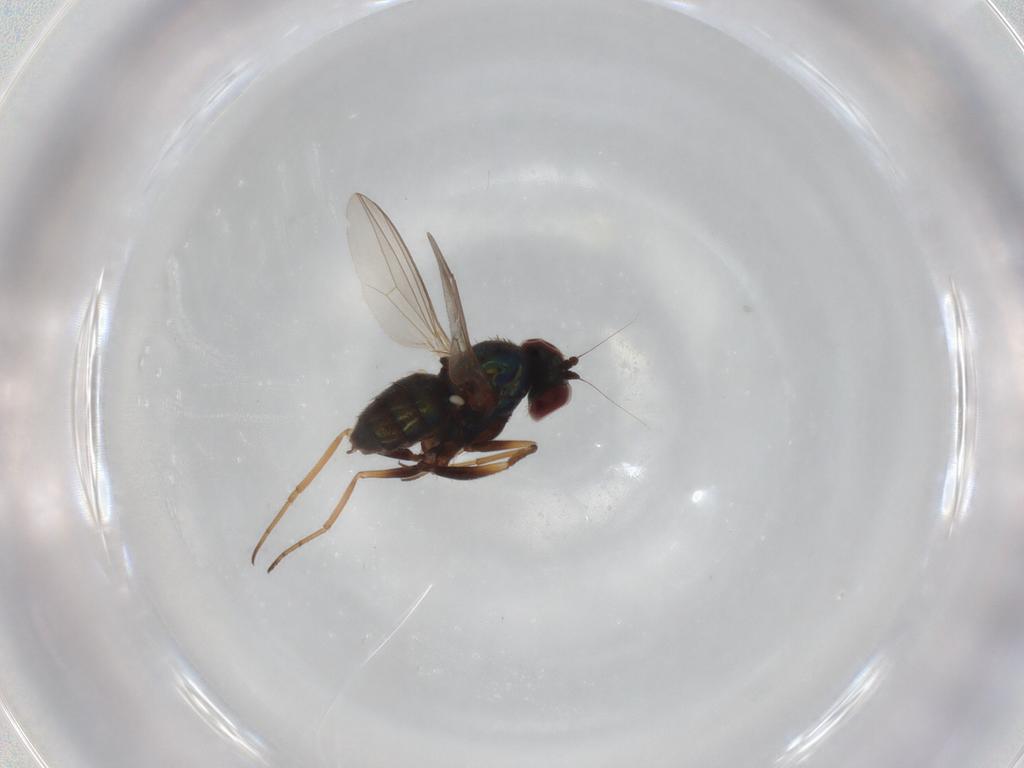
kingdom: Animalia
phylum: Arthropoda
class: Insecta
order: Diptera
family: Dolichopodidae
